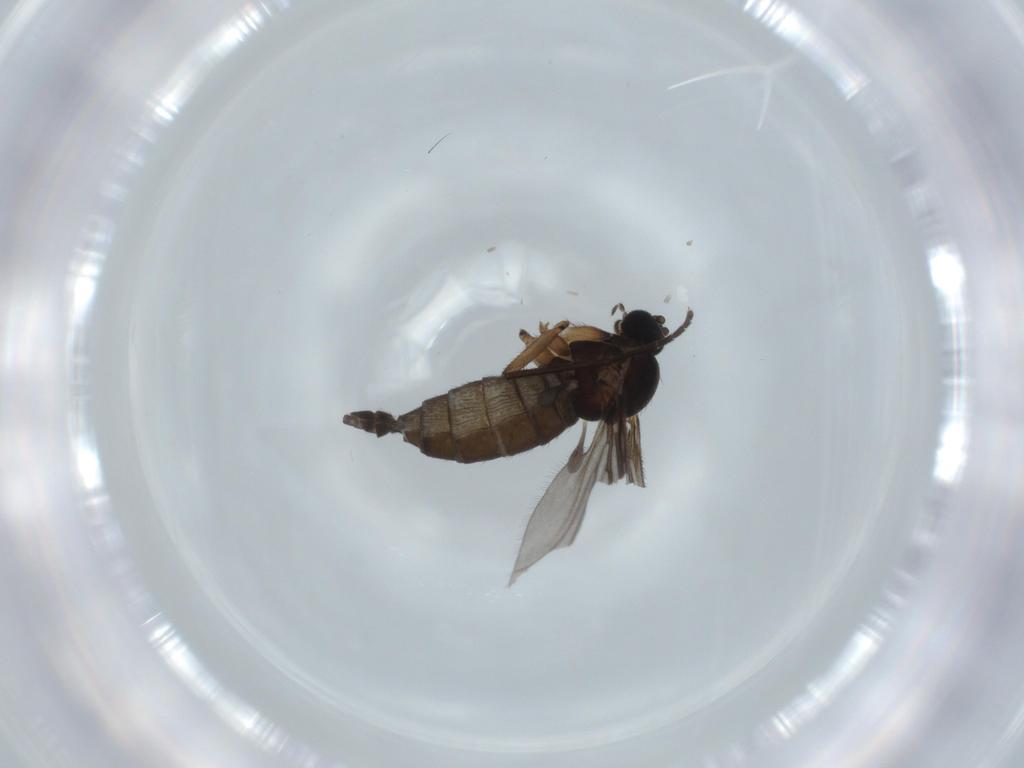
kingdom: Animalia
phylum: Arthropoda
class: Insecta
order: Diptera
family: Sciaridae
